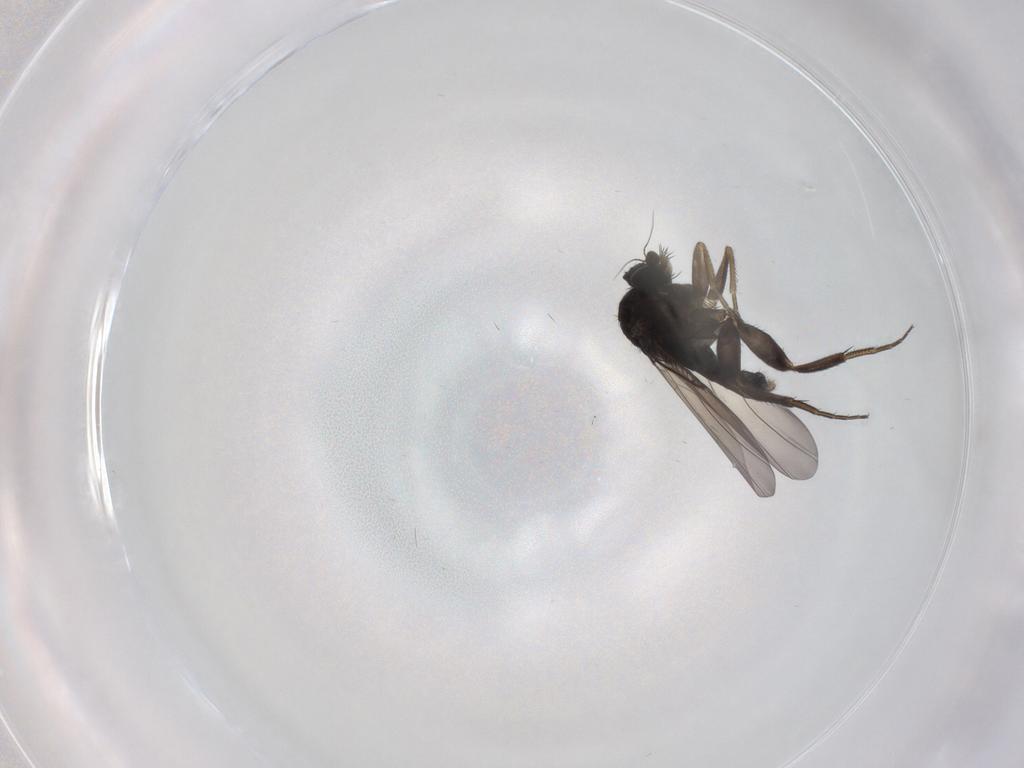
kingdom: Animalia
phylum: Arthropoda
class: Insecta
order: Diptera
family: Phoridae
